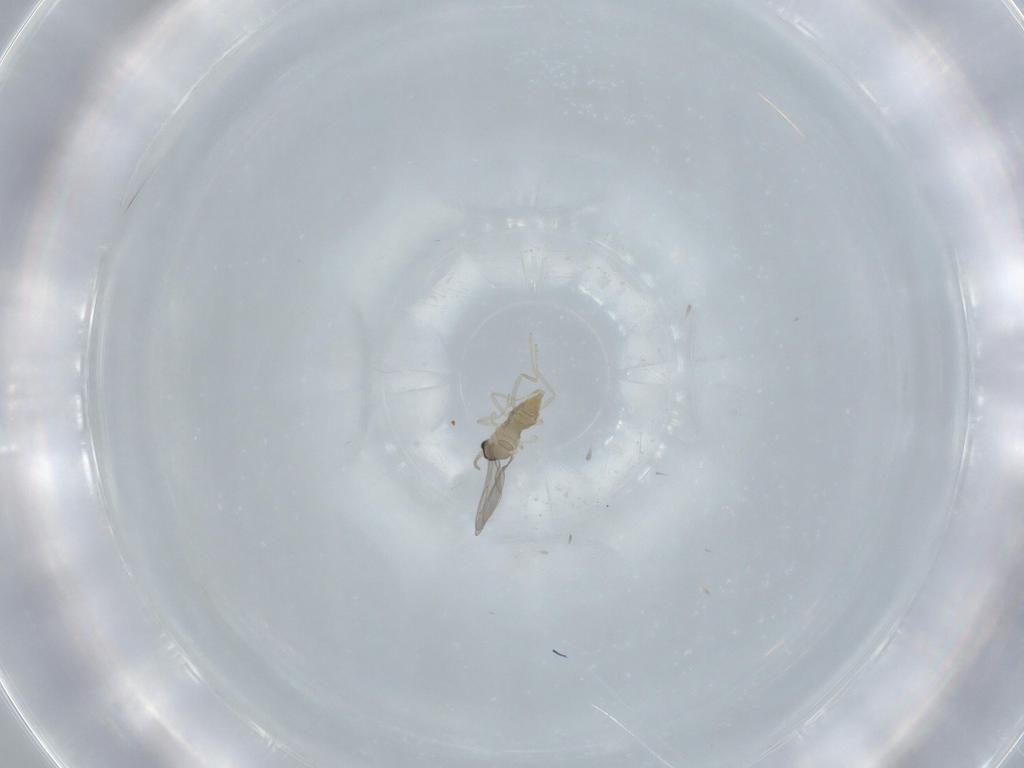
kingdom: Animalia
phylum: Arthropoda
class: Insecta
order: Diptera
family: Cecidomyiidae
